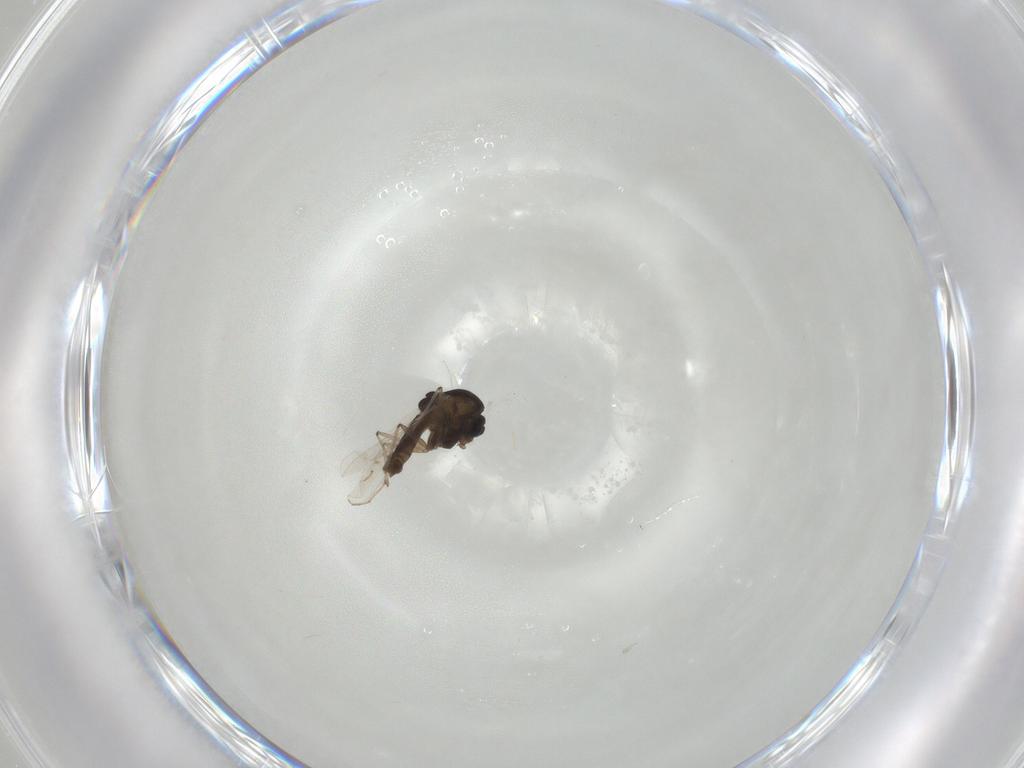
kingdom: Animalia
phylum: Arthropoda
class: Insecta
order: Diptera
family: Chironomidae
